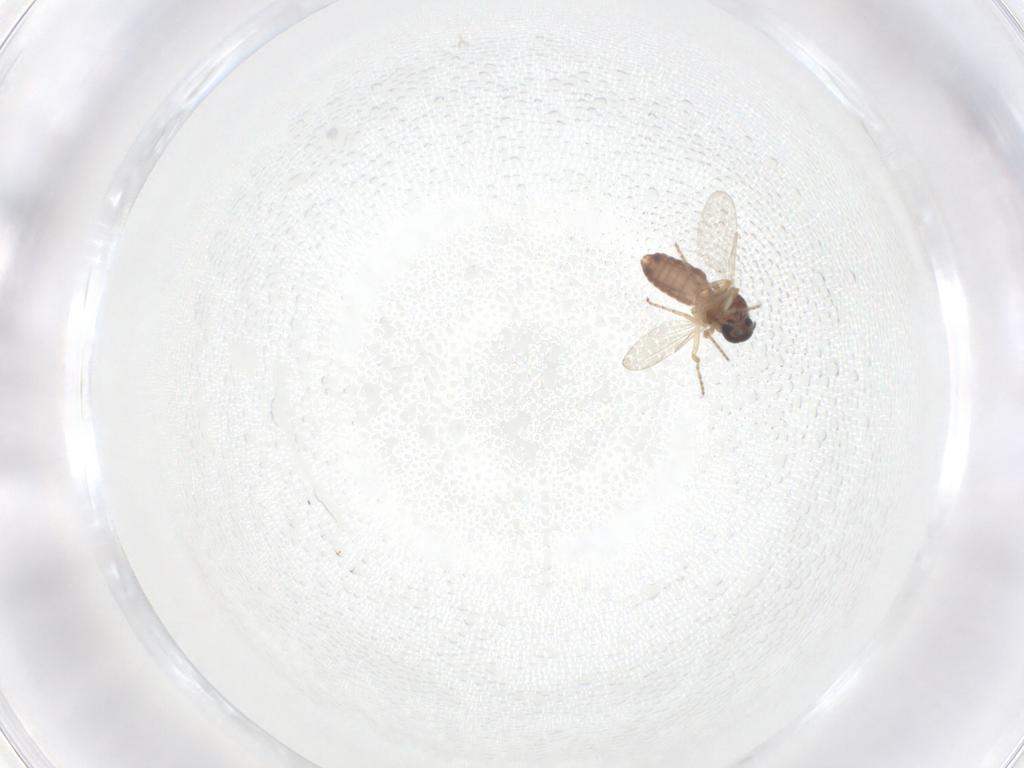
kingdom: Animalia
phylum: Arthropoda
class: Insecta
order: Diptera
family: Ceratopogonidae
